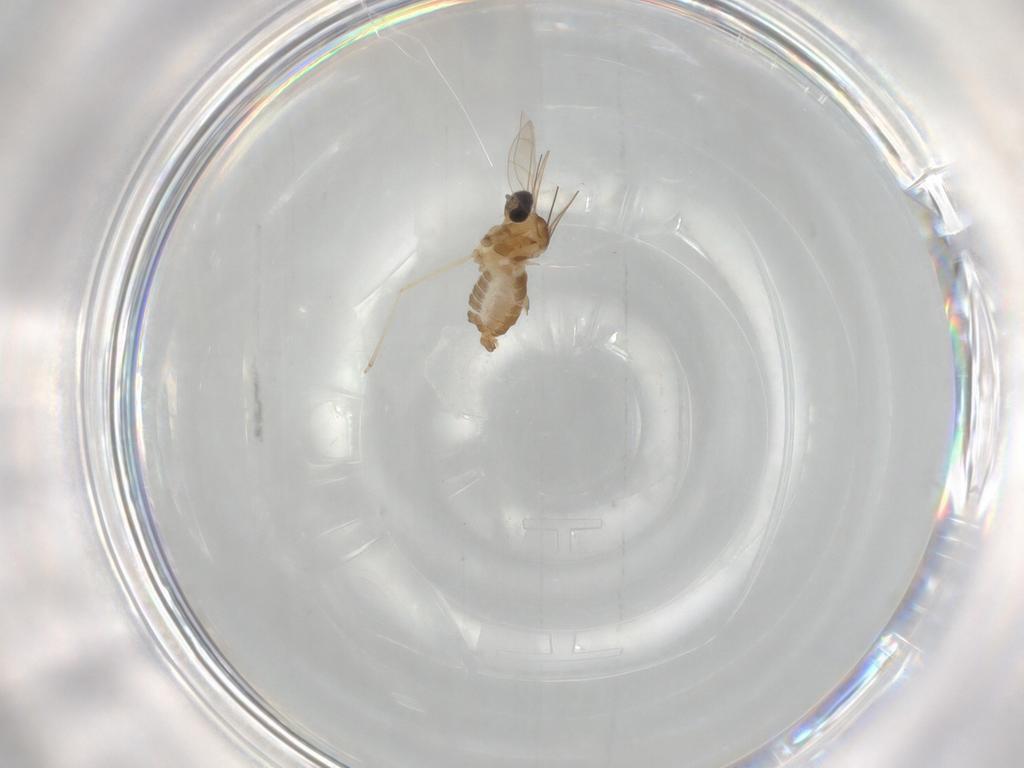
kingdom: Animalia
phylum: Arthropoda
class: Insecta
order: Diptera
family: Cecidomyiidae
